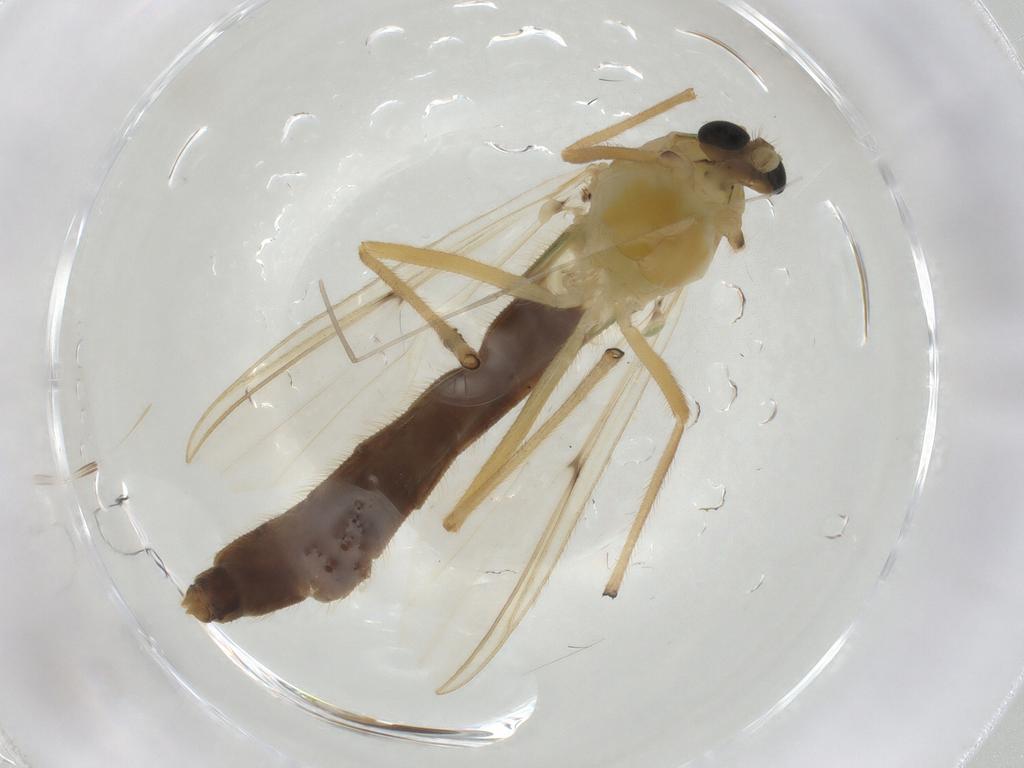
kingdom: Animalia
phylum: Arthropoda
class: Insecta
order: Diptera
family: Chironomidae
